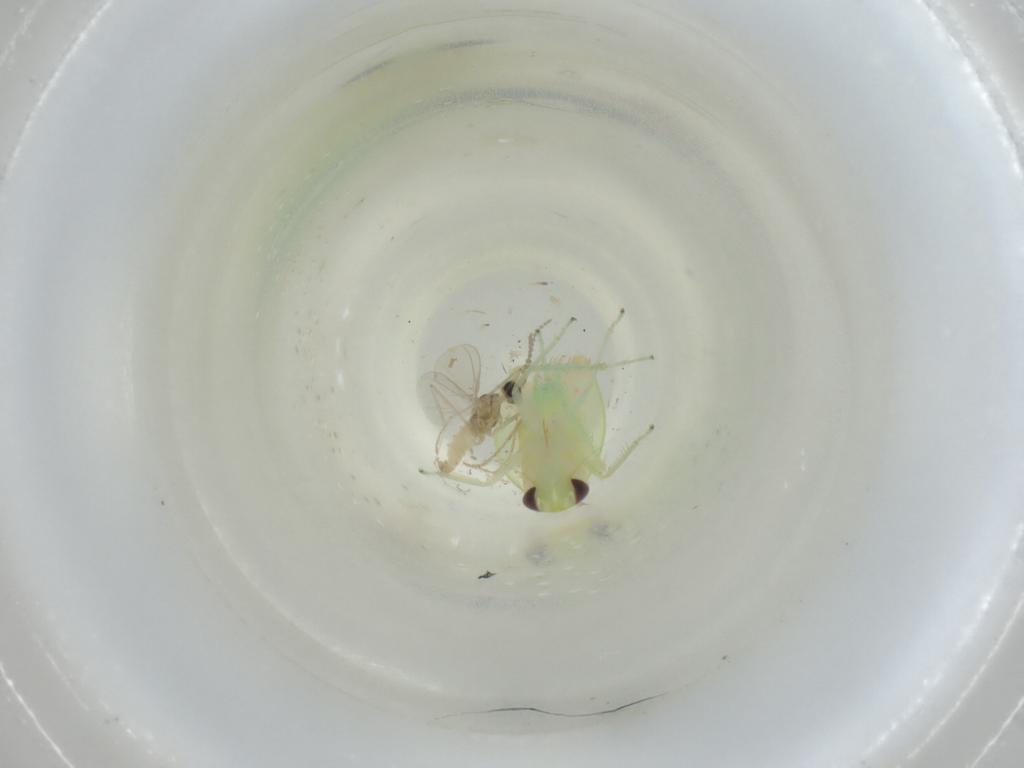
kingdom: Animalia
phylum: Arthropoda
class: Insecta
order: Hemiptera
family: Cicadellidae
